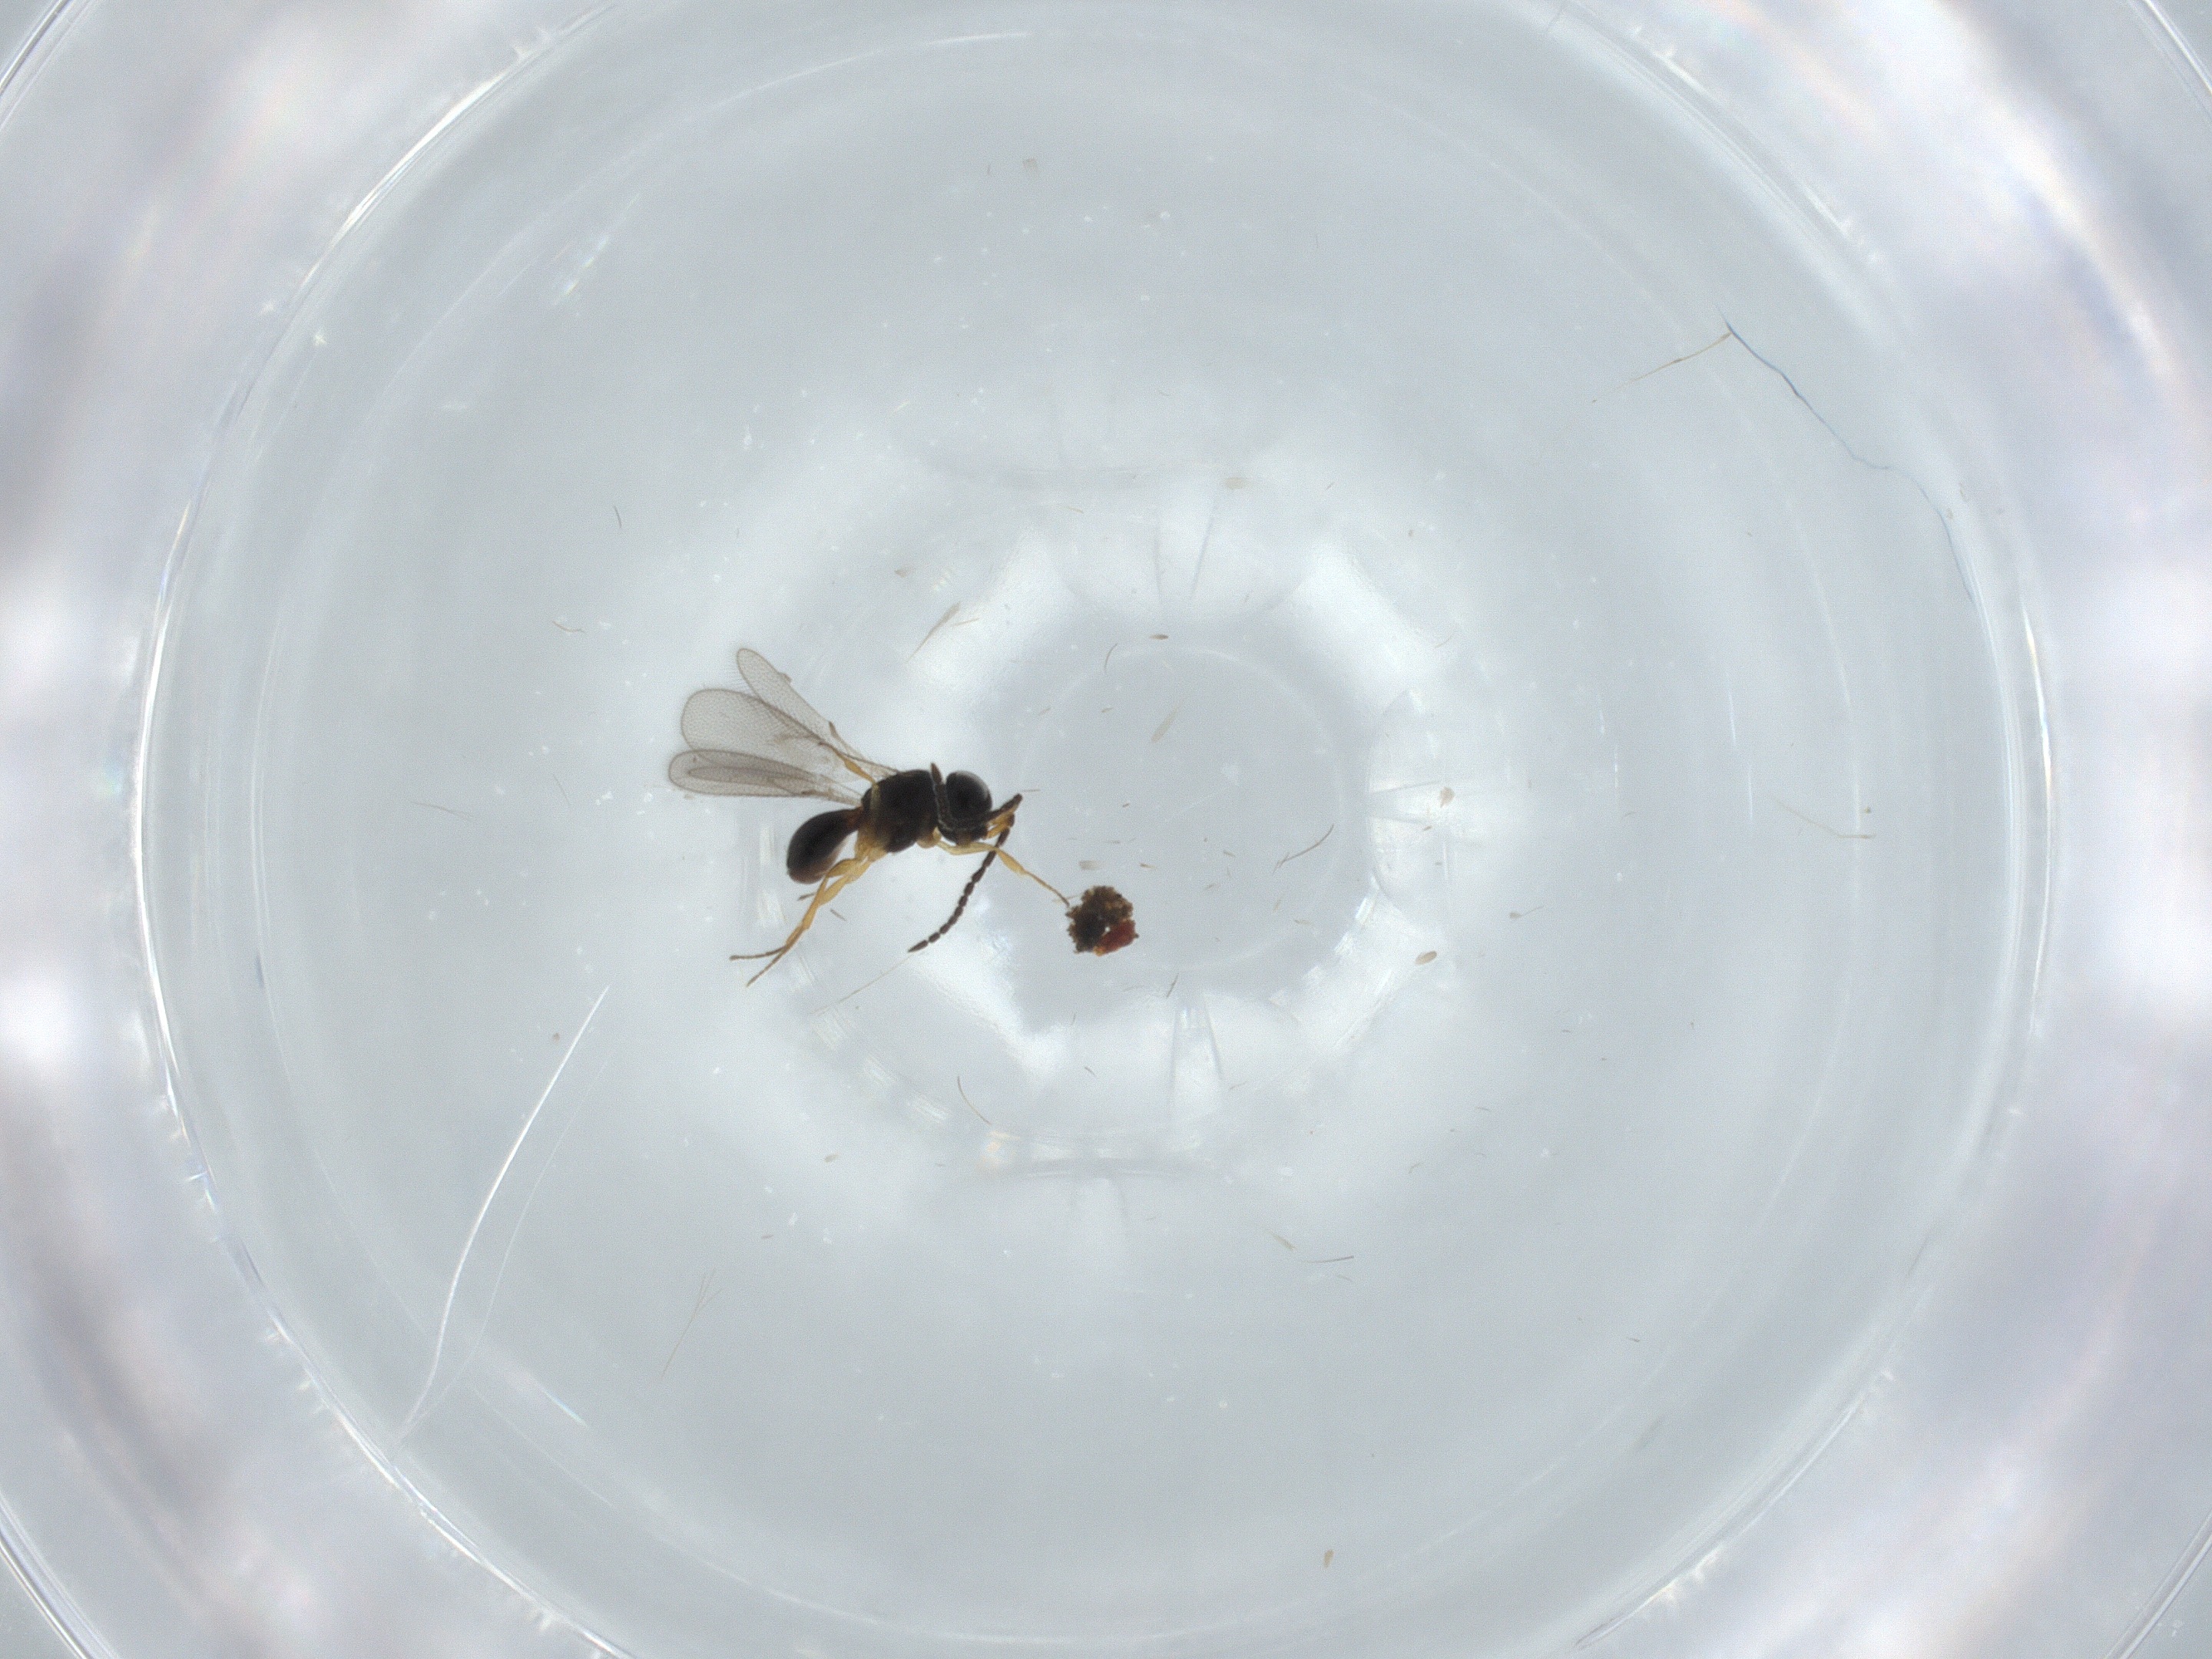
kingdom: Animalia
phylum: Arthropoda
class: Insecta
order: Hymenoptera
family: Scelionidae
